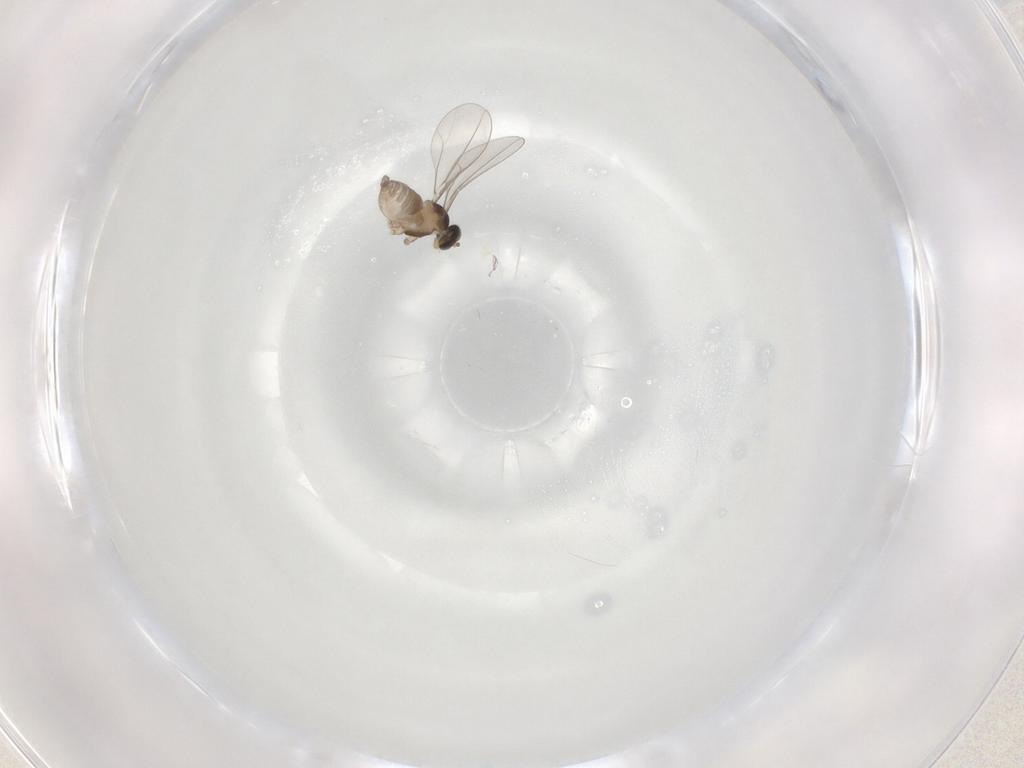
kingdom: Animalia
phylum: Arthropoda
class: Insecta
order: Diptera
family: Cecidomyiidae
